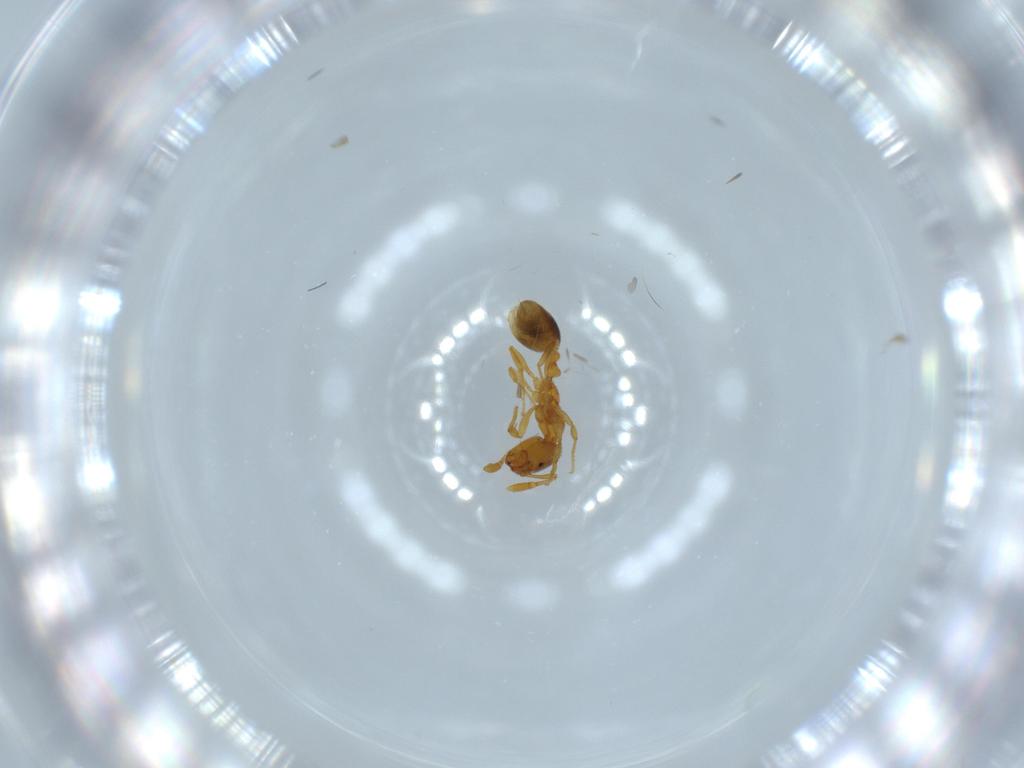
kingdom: Animalia
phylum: Arthropoda
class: Insecta
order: Hymenoptera
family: Formicidae
